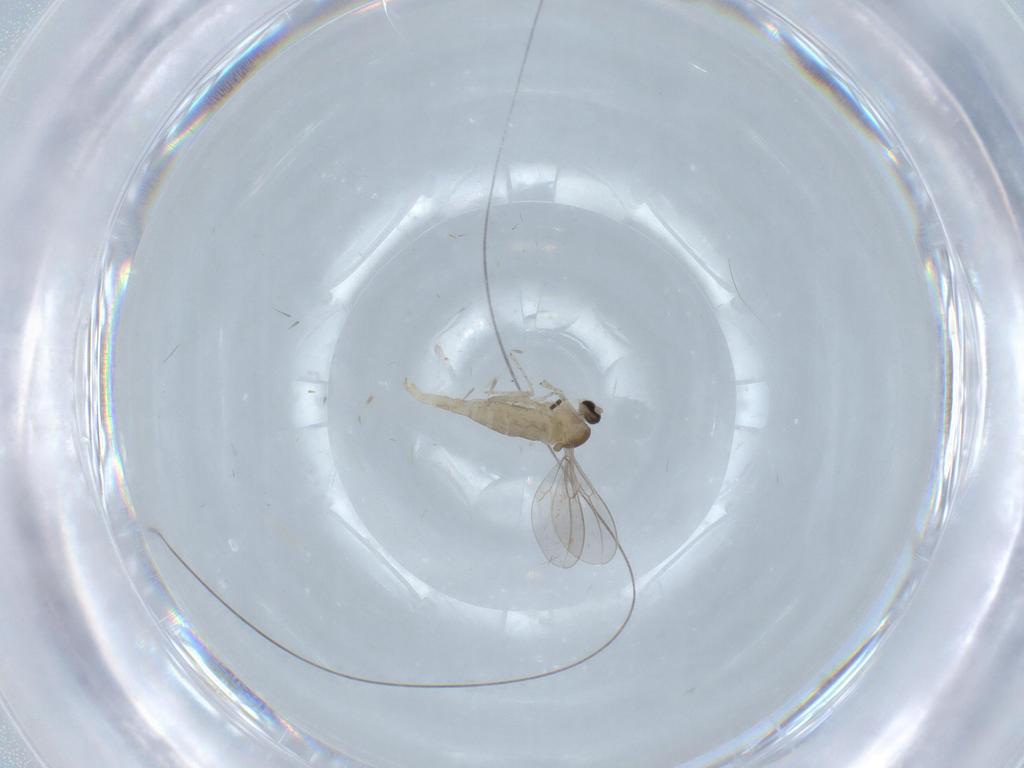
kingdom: Animalia
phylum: Arthropoda
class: Insecta
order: Diptera
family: Cecidomyiidae
